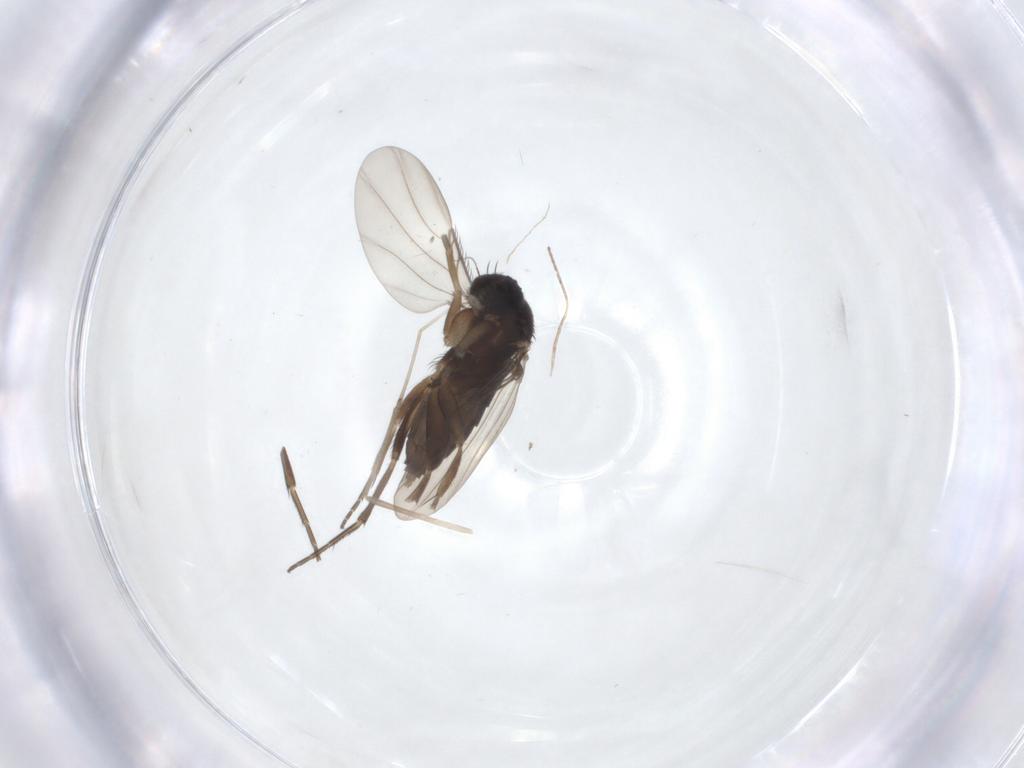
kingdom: Animalia
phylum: Arthropoda
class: Insecta
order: Diptera
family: Phoridae
